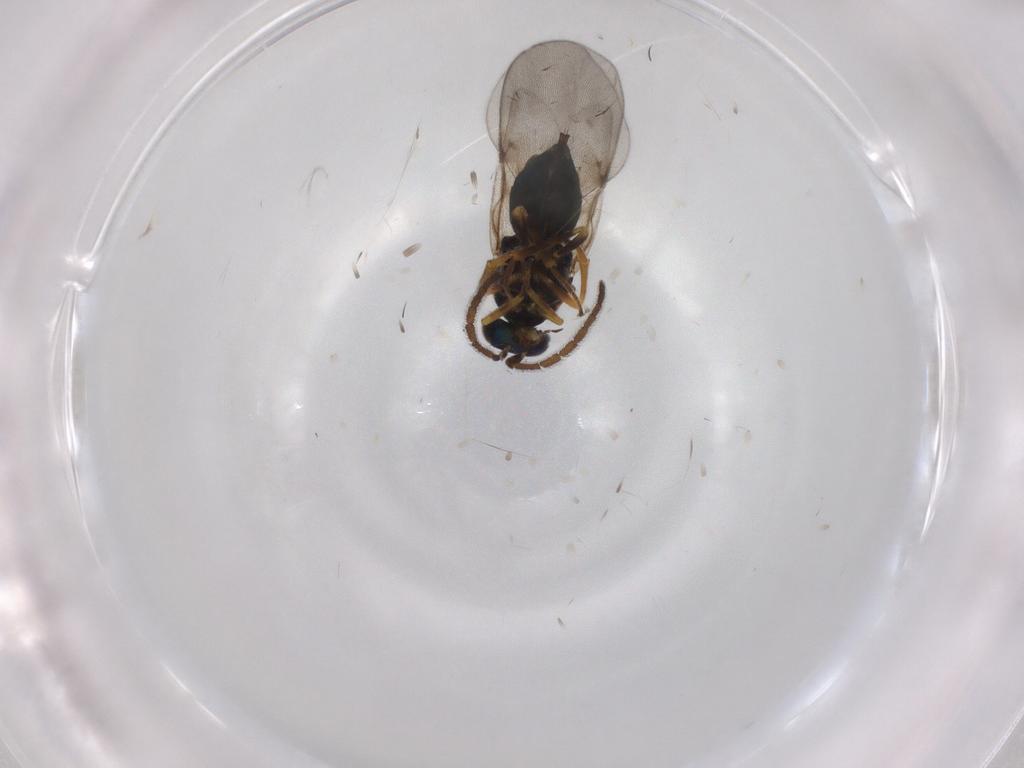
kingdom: Animalia
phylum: Arthropoda
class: Insecta
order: Hymenoptera
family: Encyrtidae
